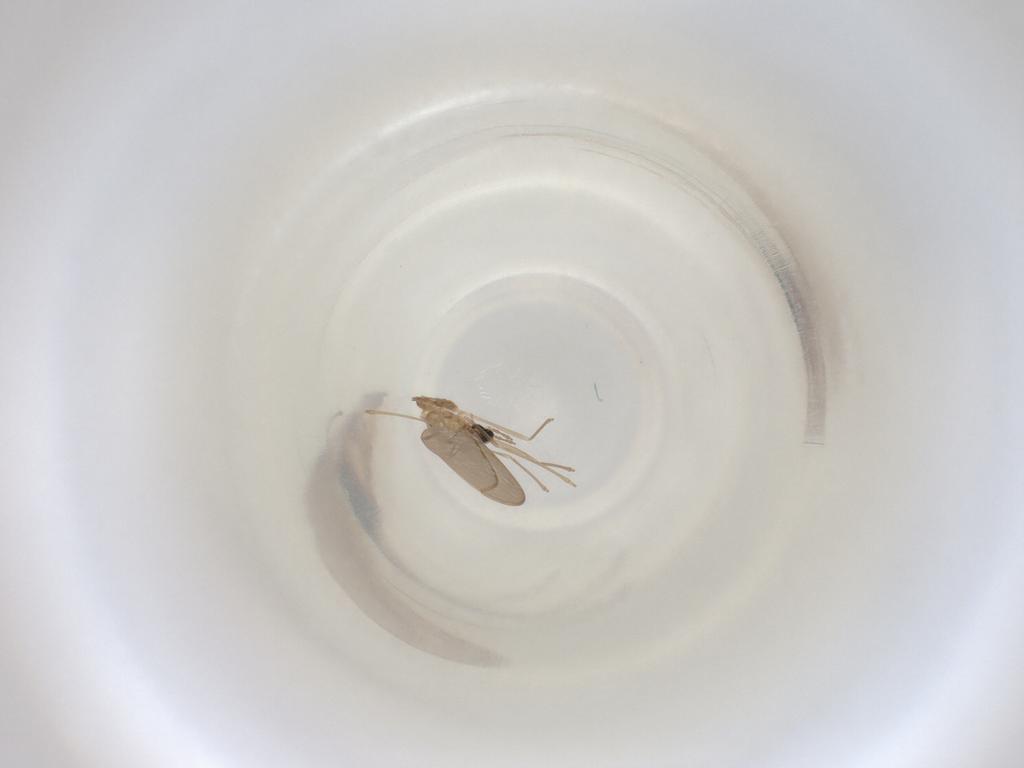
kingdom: Animalia
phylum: Arthropoda
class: Insecta
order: Diptera
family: Cecidomyiidae
